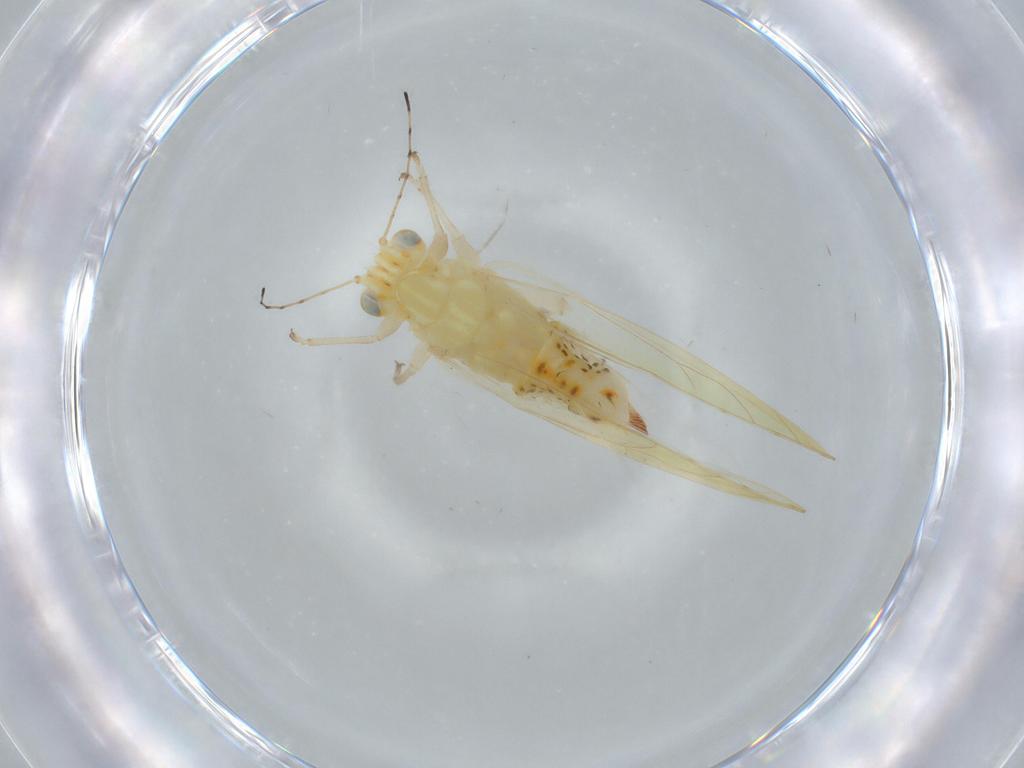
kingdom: Animalia
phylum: Arthropoda
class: Insecta
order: Hemiptera
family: Triozidae
